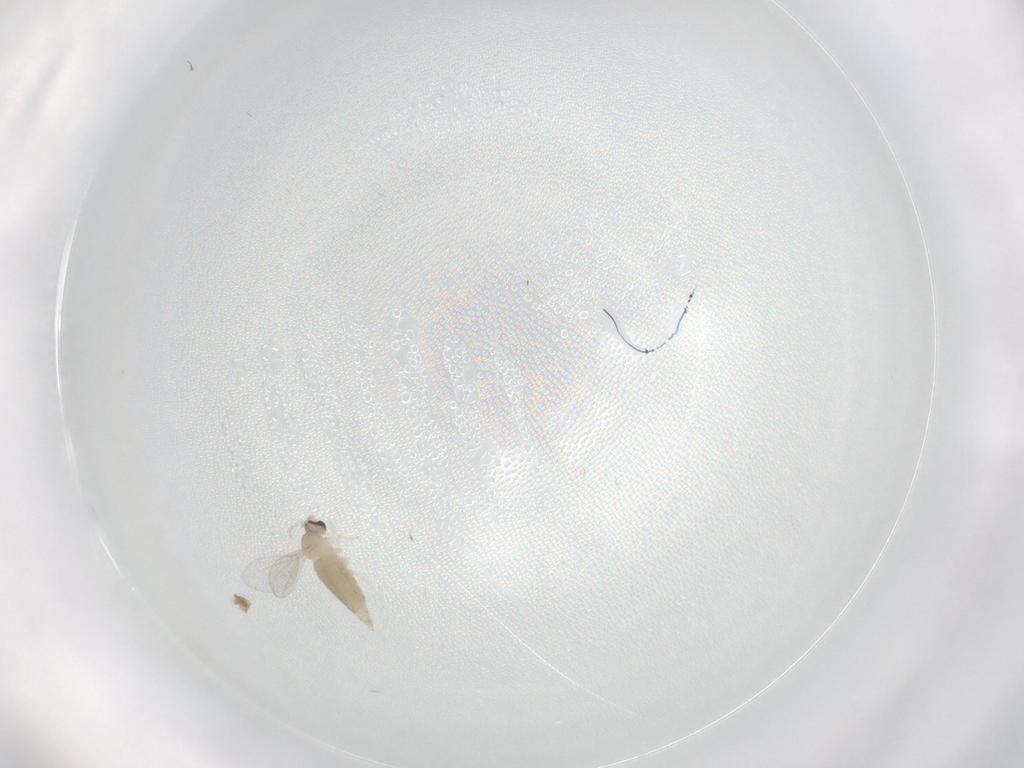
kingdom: Animalia
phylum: Arthropoda
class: Insecta
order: Diptera
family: Cecidomyiidae
